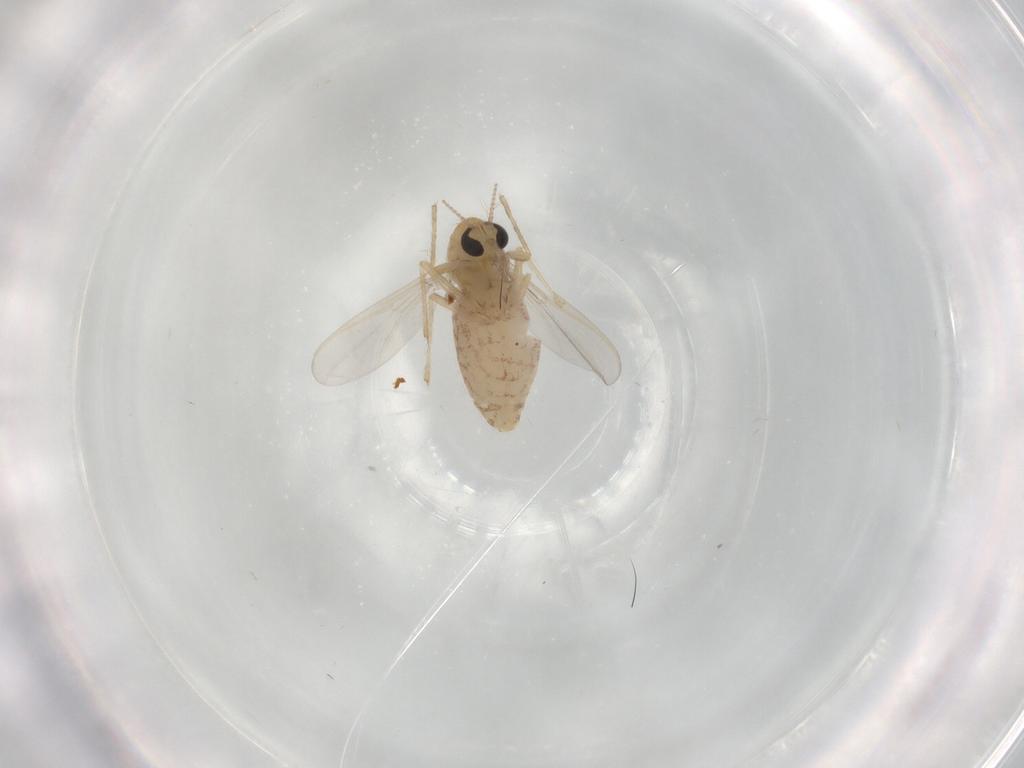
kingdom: Animalia
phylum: Arthropoda
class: Insecta
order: Diptera
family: Chironomidae
